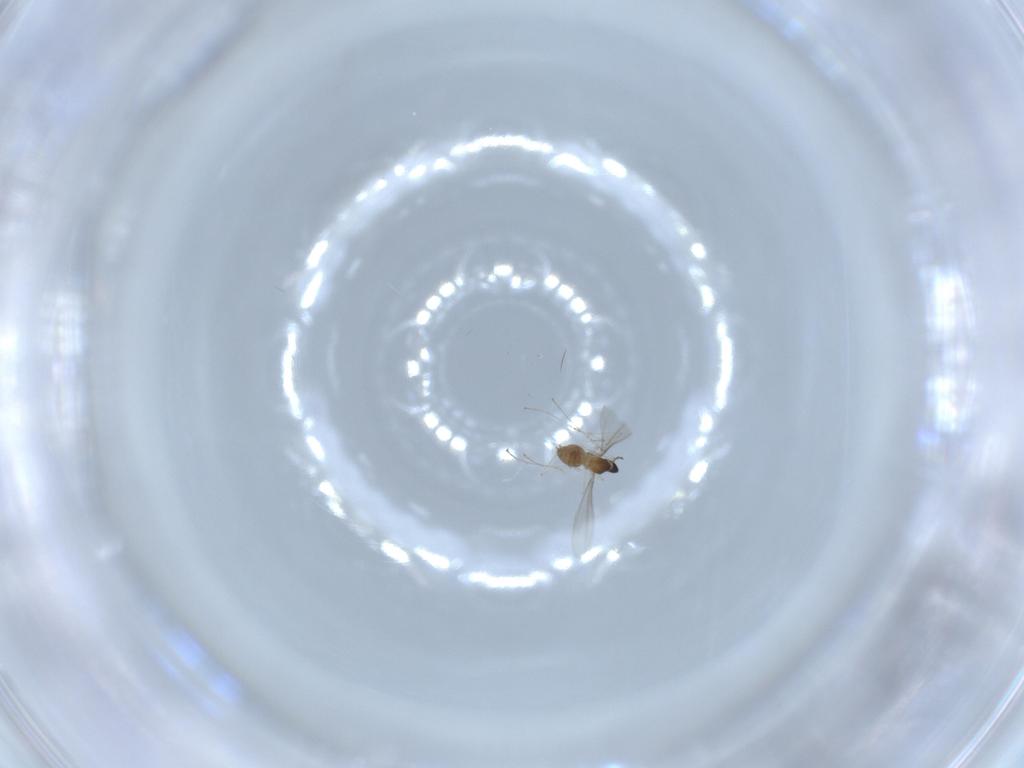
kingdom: Animalia
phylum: Arthropoda
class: Insecta
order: Diptera
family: Cecidomyiidae
